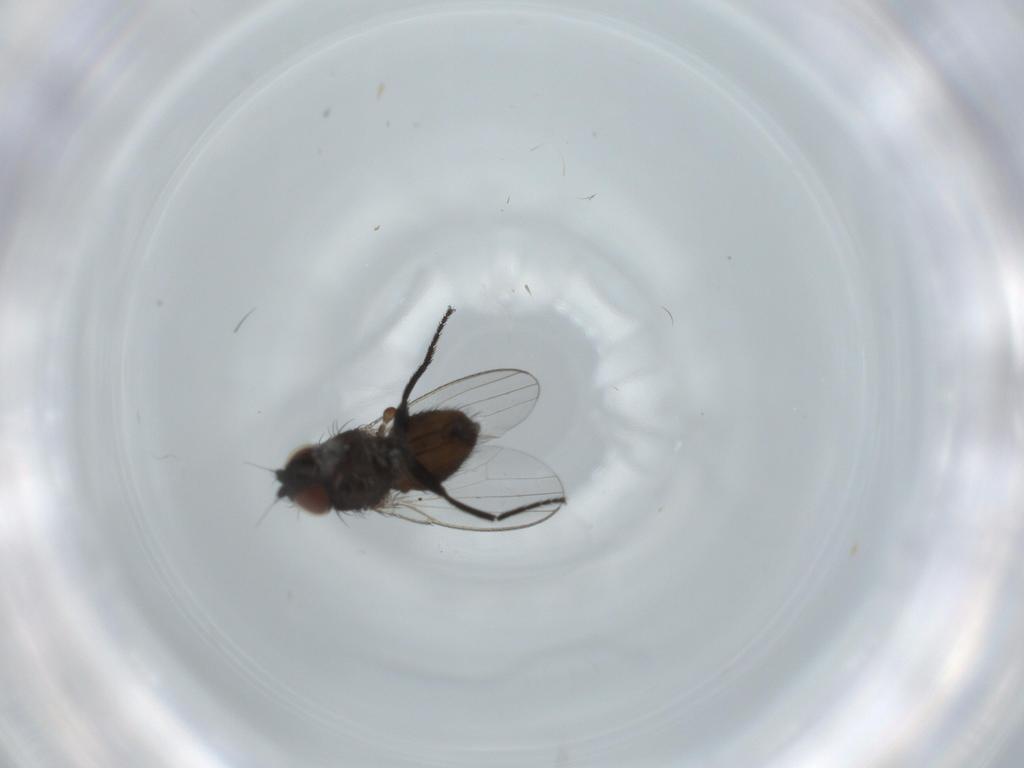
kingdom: Animalia
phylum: Arthropoda
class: Insecta
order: Diptera
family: Milichiidae
